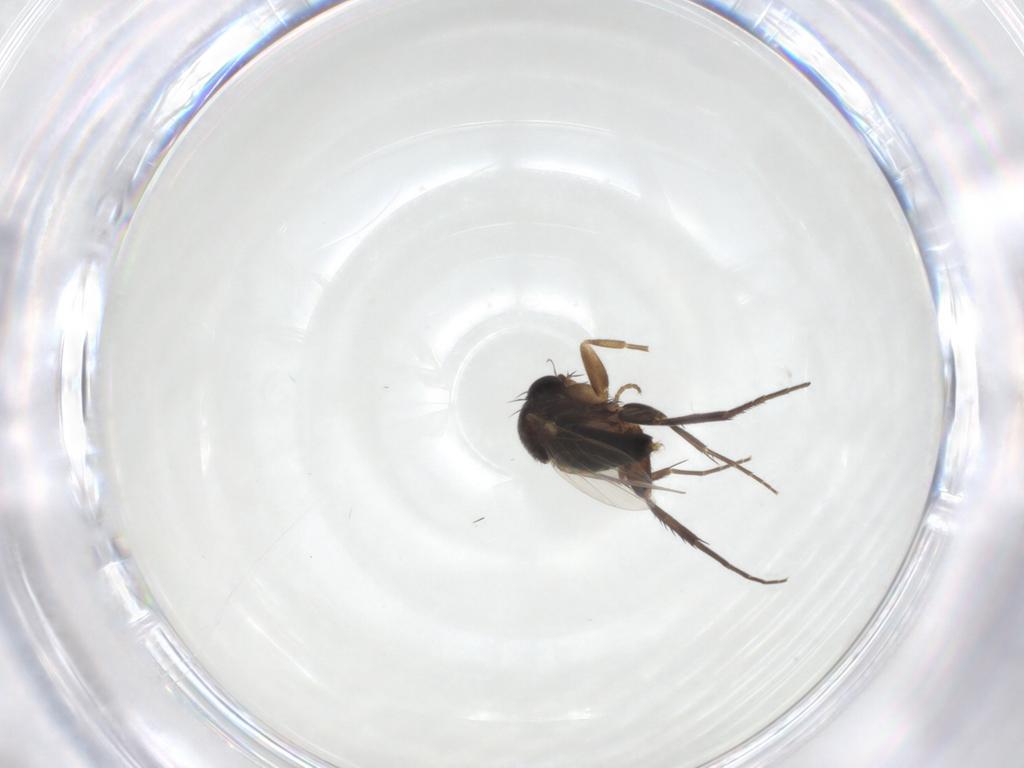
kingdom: Animalia
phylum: Arthropoda
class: Insecta
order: Diptera
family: Phoridae
